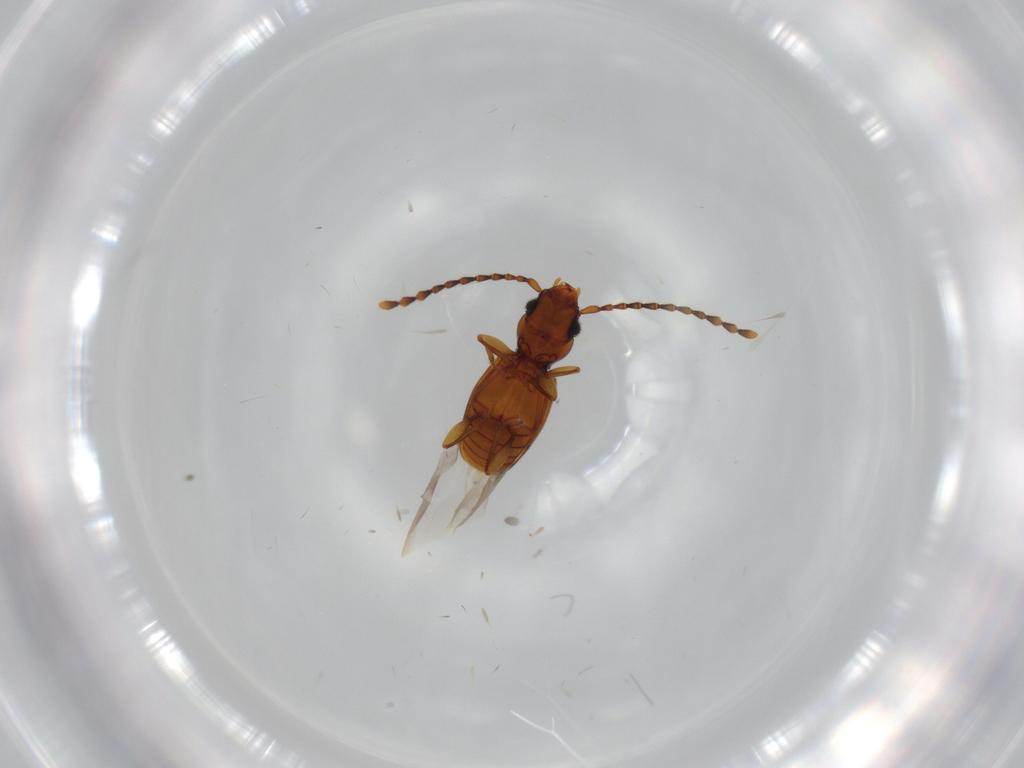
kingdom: Animalia
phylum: Arthropoda
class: Insecta
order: Coleoptera
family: Laemophloeidae
